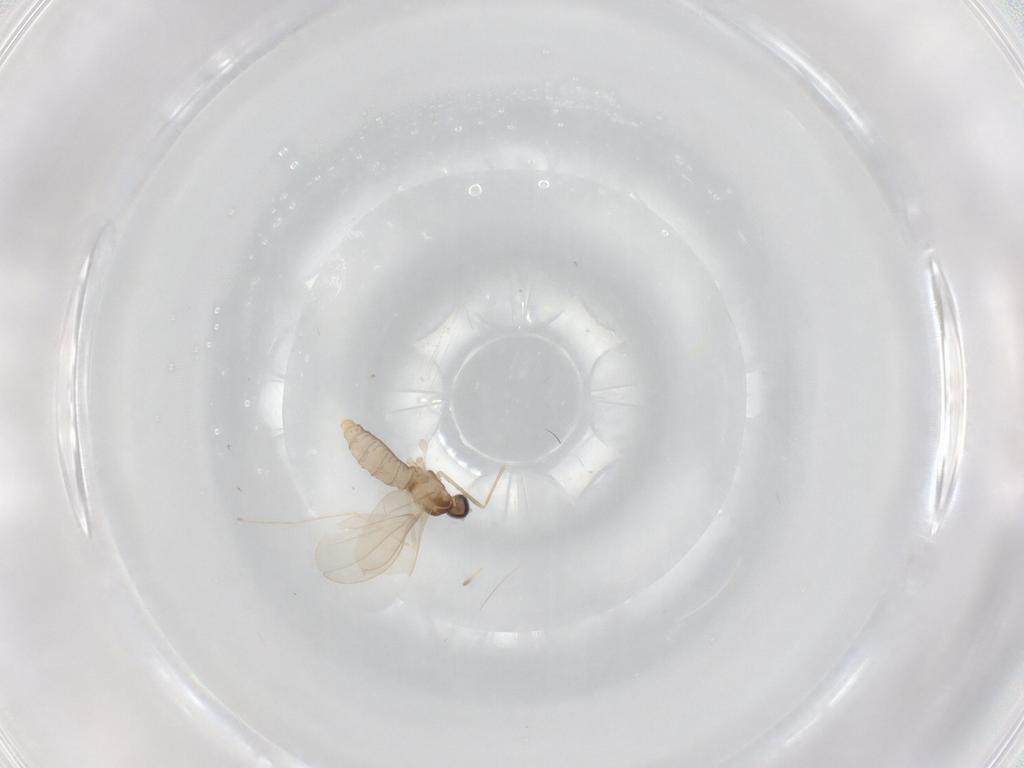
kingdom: Animalia
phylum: Arthropoda
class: Insecta
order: Diptera
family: Cecidomyiidae
